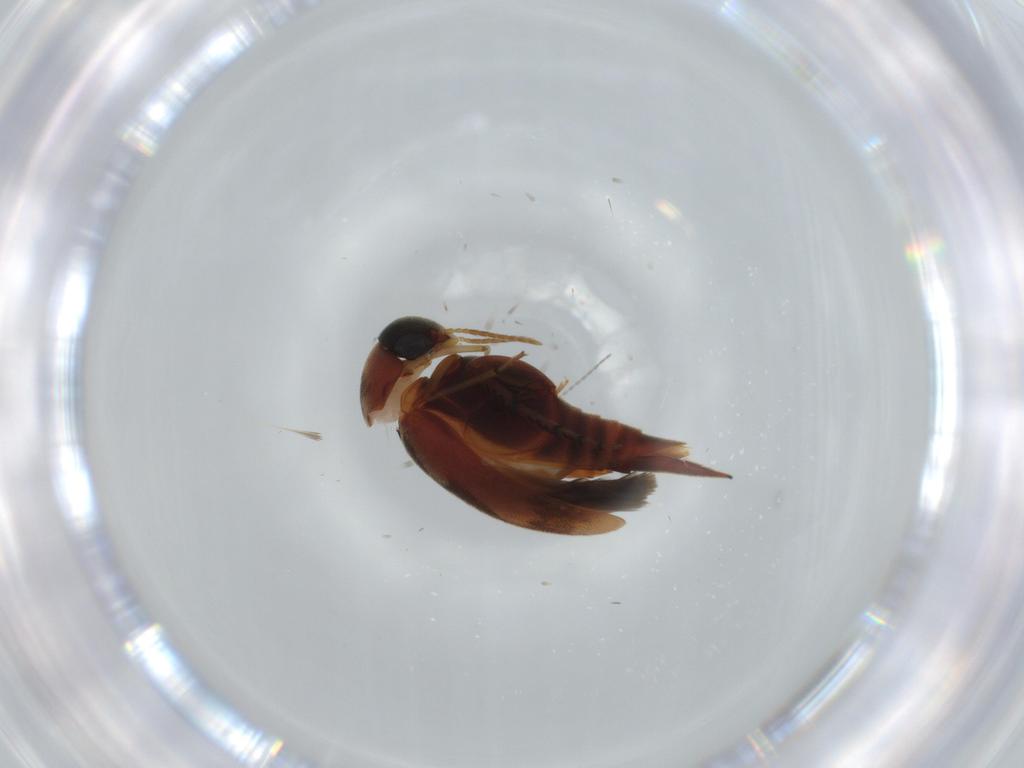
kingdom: Animalia
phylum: Arthropoda
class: Insecta
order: Coleoptera
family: Mordellidae
